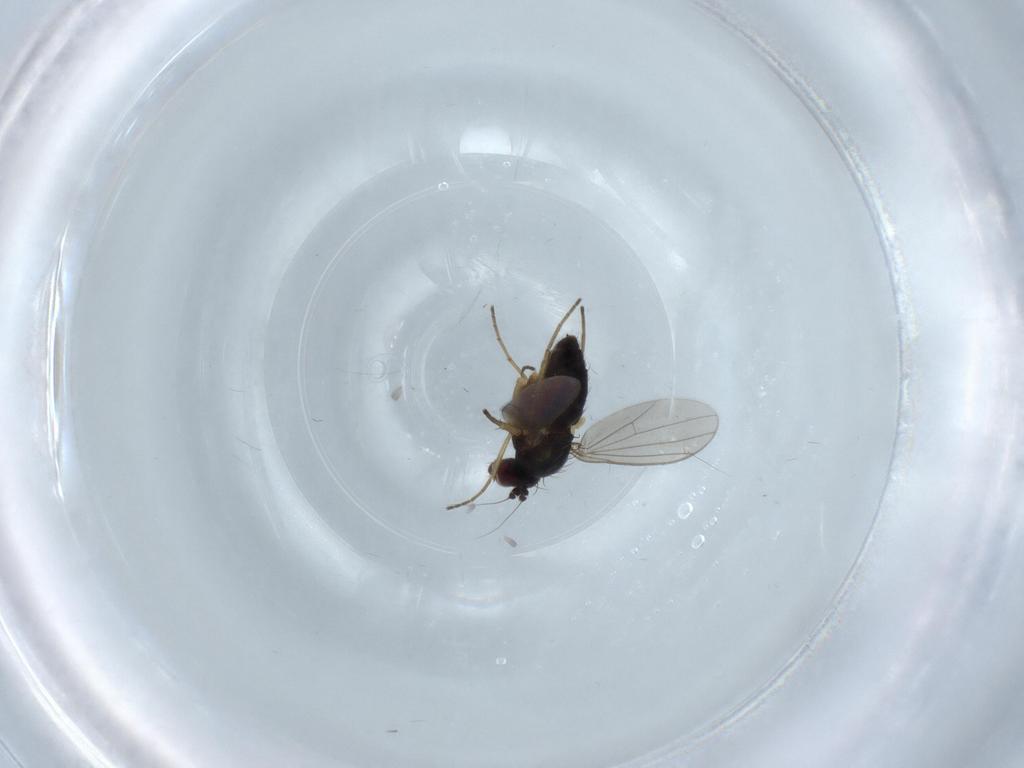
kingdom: Animalia
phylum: Arthropoda
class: Insecta
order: Diptera
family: Dolichopodidae
